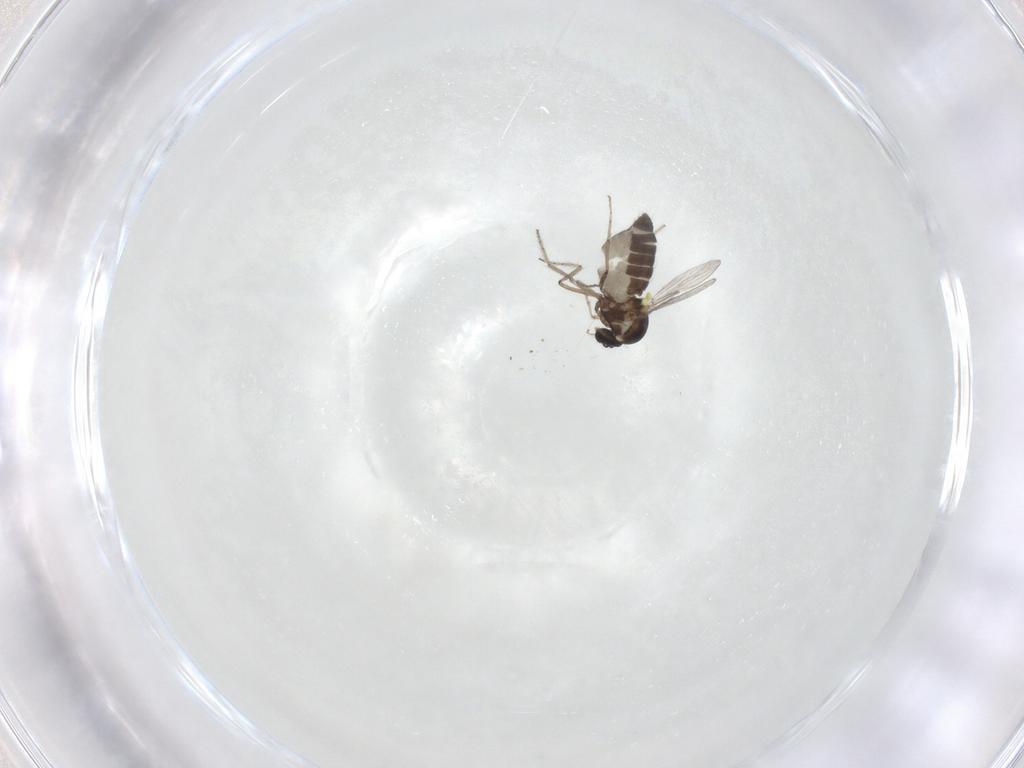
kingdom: Animalia
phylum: Arthropoda
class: Insecta
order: Diptera
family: Ceratopogonidae
